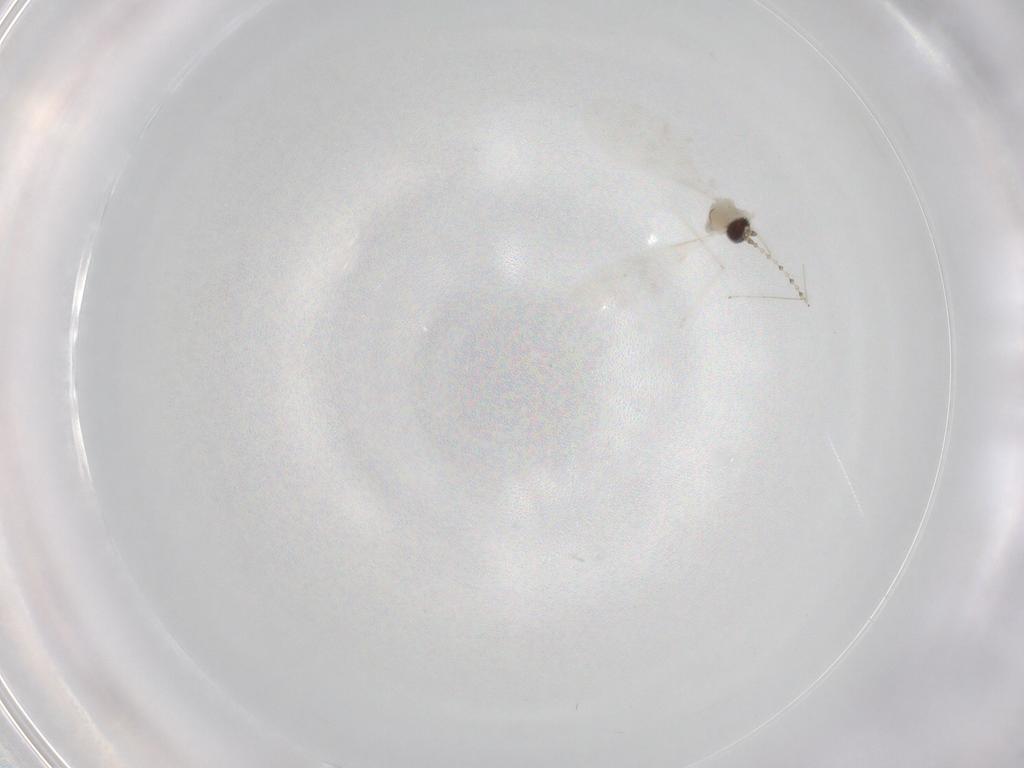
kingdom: Animalia
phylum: Arthropoda
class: Insecta
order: Diptera
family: Cecidomyiidae
